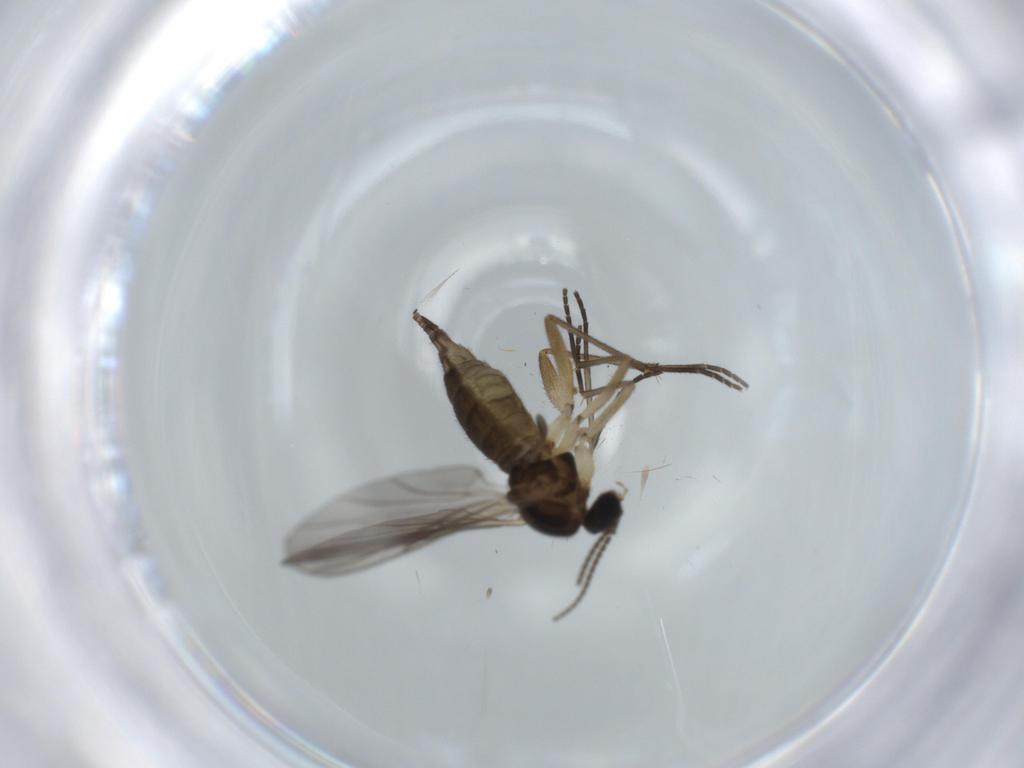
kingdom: Animalia
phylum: Arthropoda
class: Insecta
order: Diptera
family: Sciaridae
